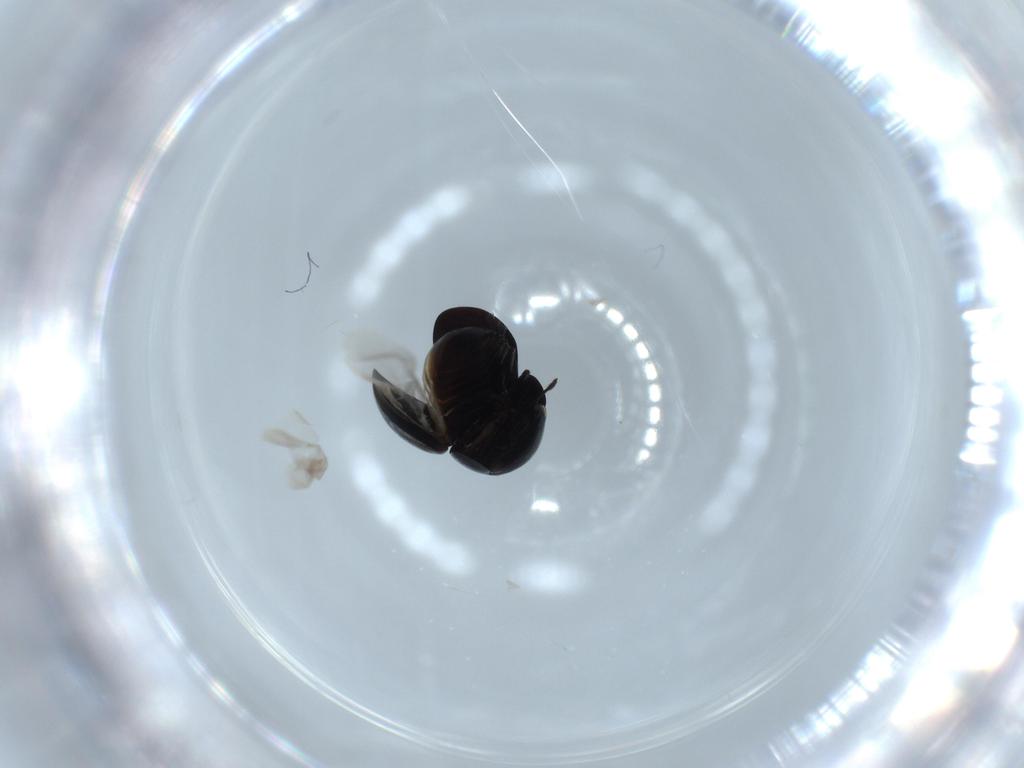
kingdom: Animalia
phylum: Arthropoda
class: Insecta
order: Coleoptera
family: Cybocephalidae
